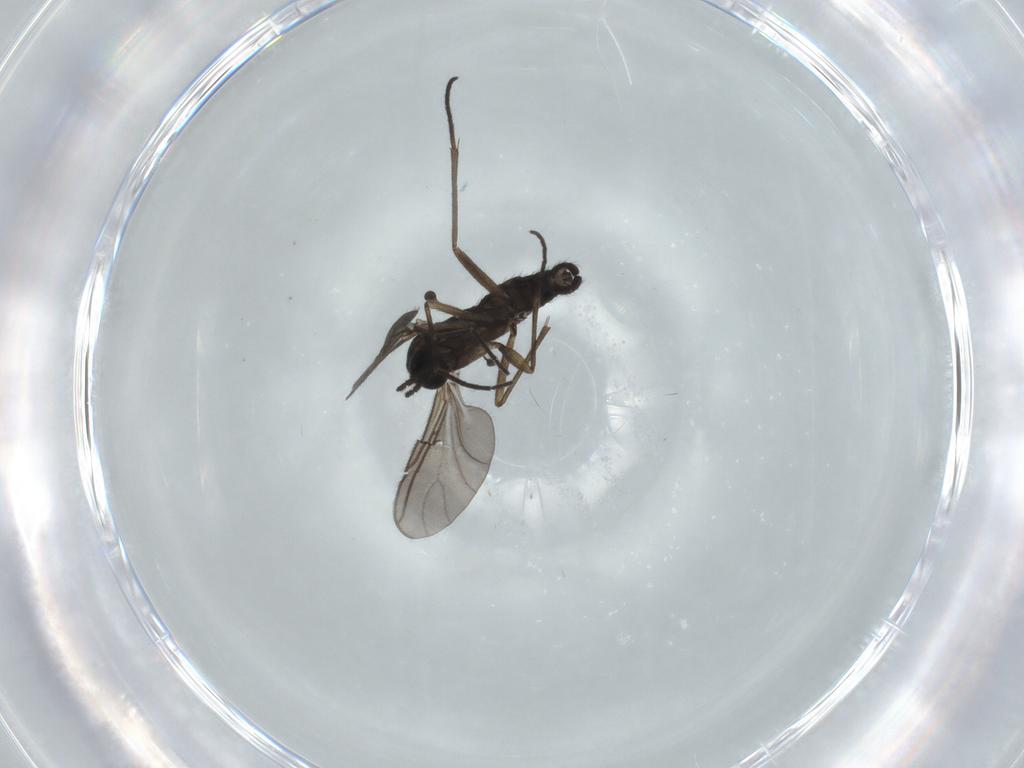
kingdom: Animalia
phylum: Arthropoda
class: Insecta
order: Diptera
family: Sciaridae
